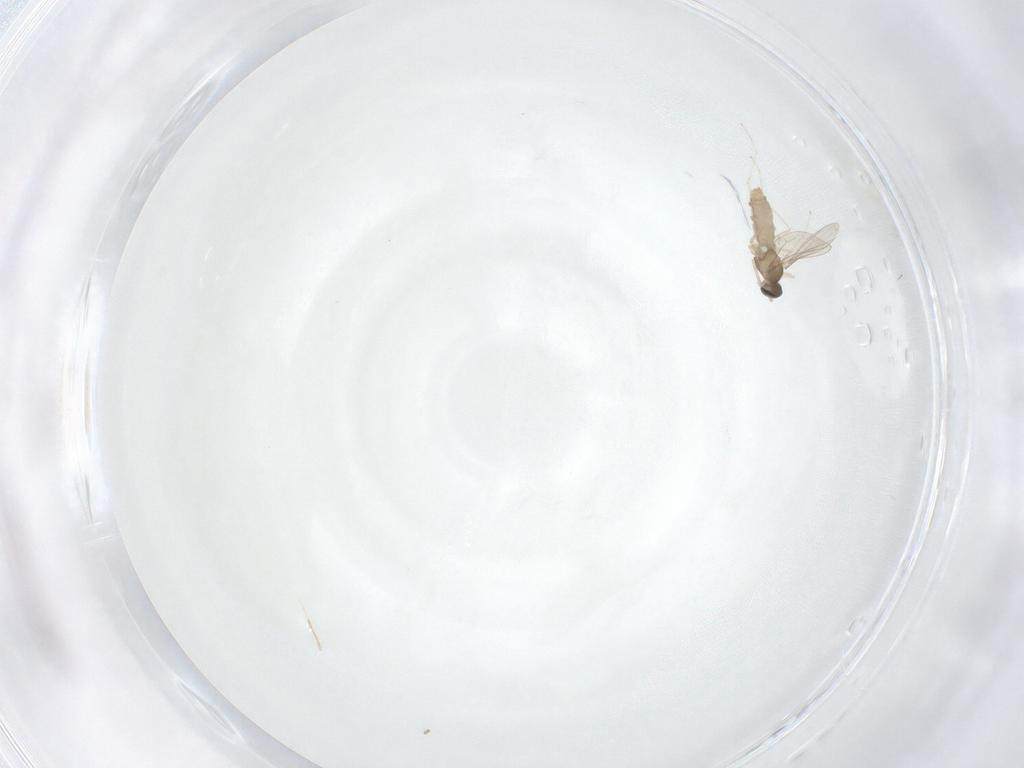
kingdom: Animalia
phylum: Arthropoda
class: Insecta
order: Diptera
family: Cecidomyiidae
